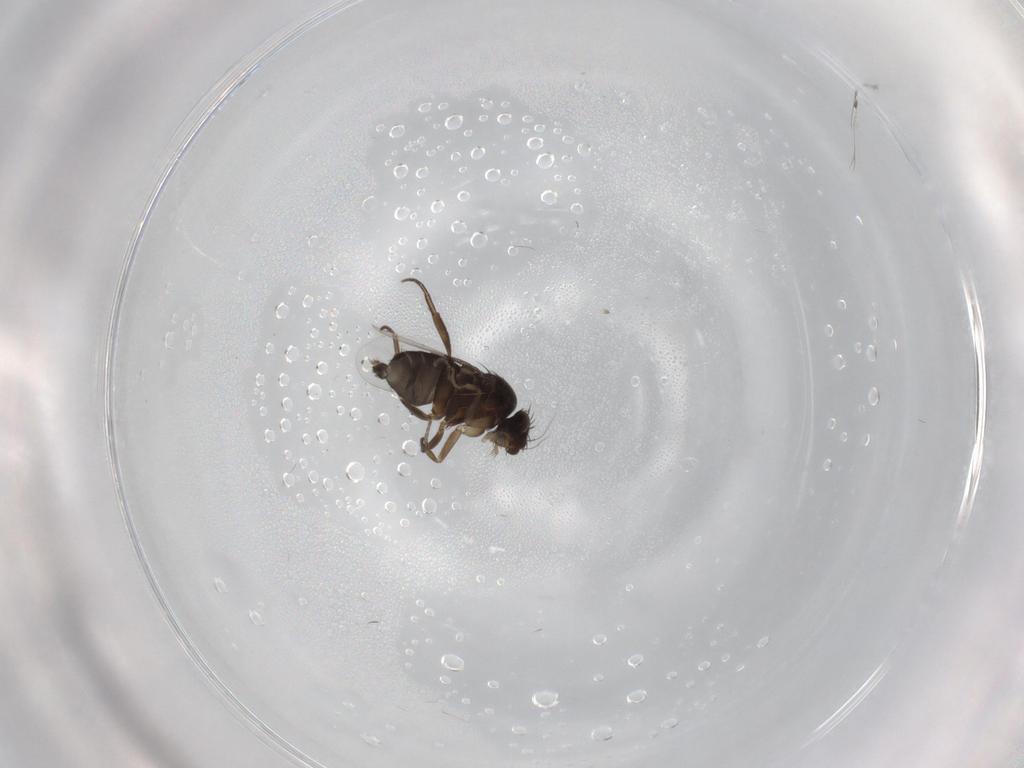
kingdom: Animalia
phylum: Arthropoda
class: Insecta
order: Diptera
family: Phoridae
